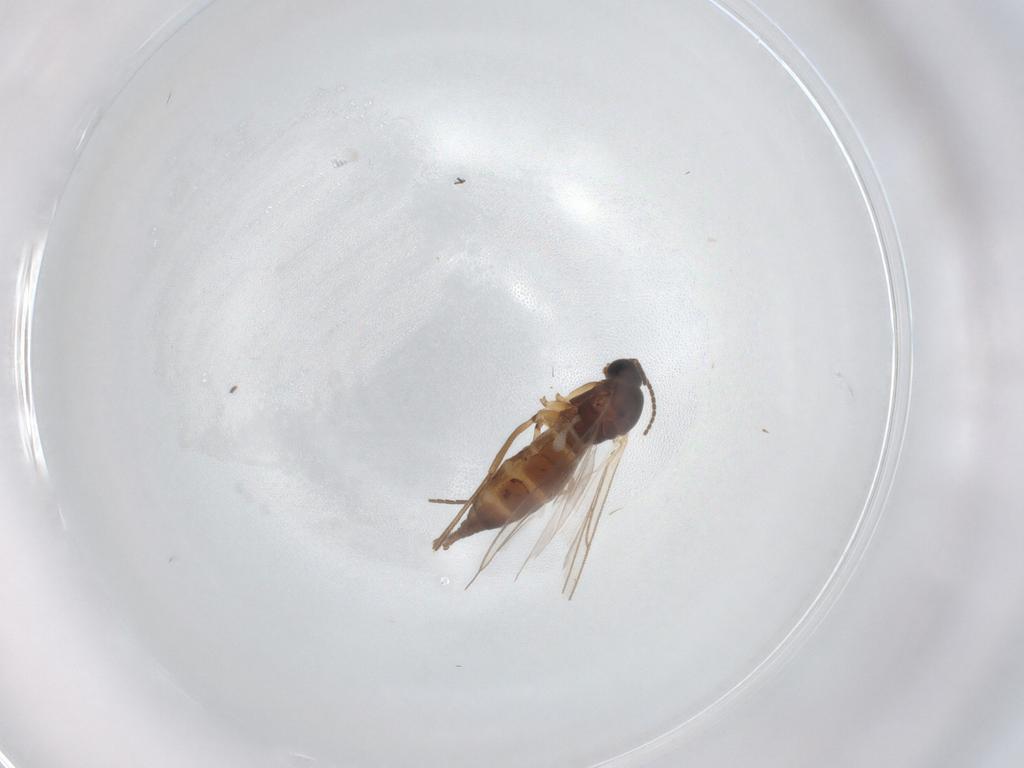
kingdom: Animalia
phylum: Arthropoda
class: Insecta
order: Diptera
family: Sciaridae
